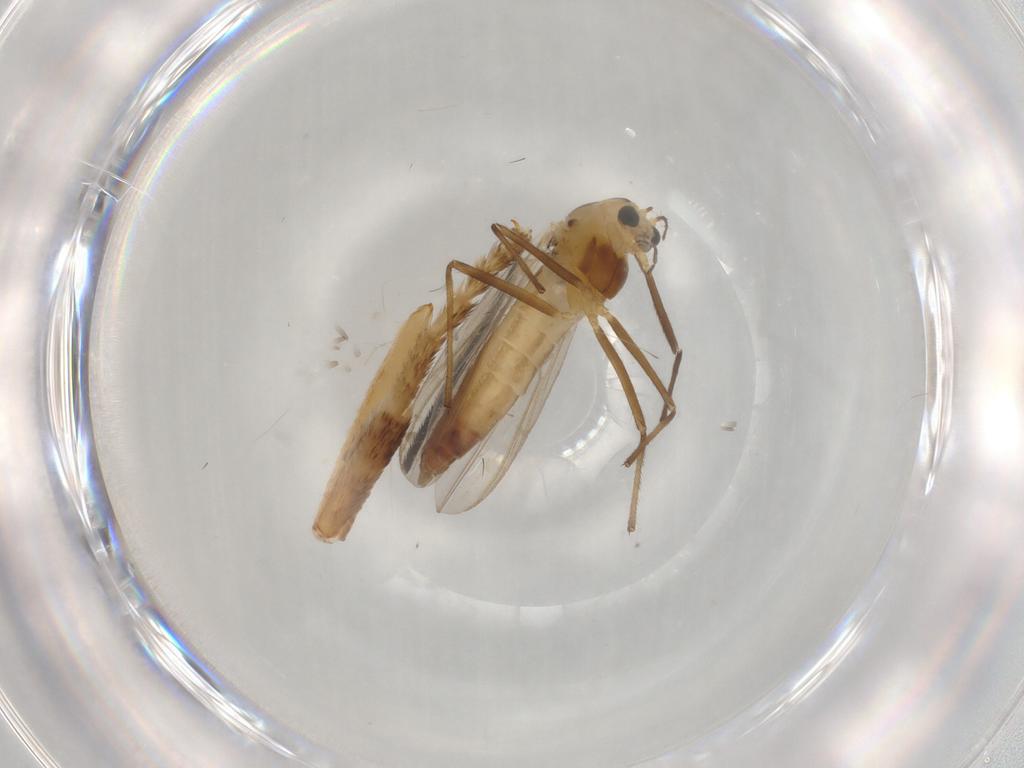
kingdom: Animalia
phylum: Arthropoda
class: Insecta
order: Diptera
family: Chironomidae
